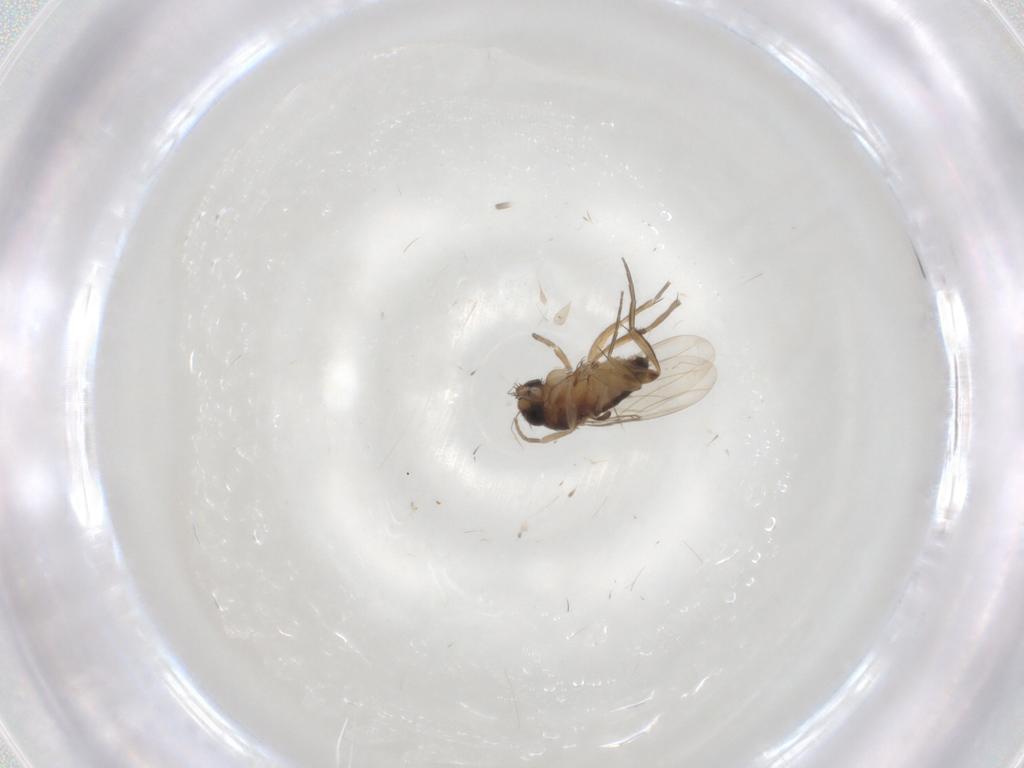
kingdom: Animalia
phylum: Arthropoda
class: Insecta
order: Diptera
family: Phoridae
